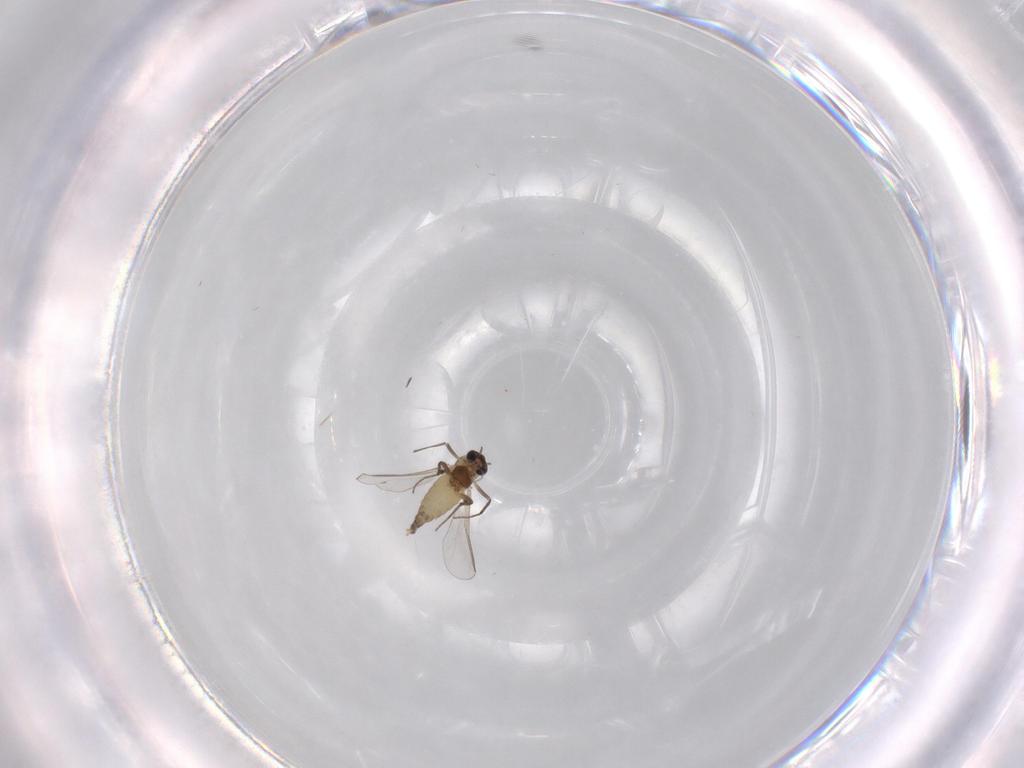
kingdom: Animalia
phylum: Arthropoda
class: Insecta
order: Diptera
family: Chironomidae
